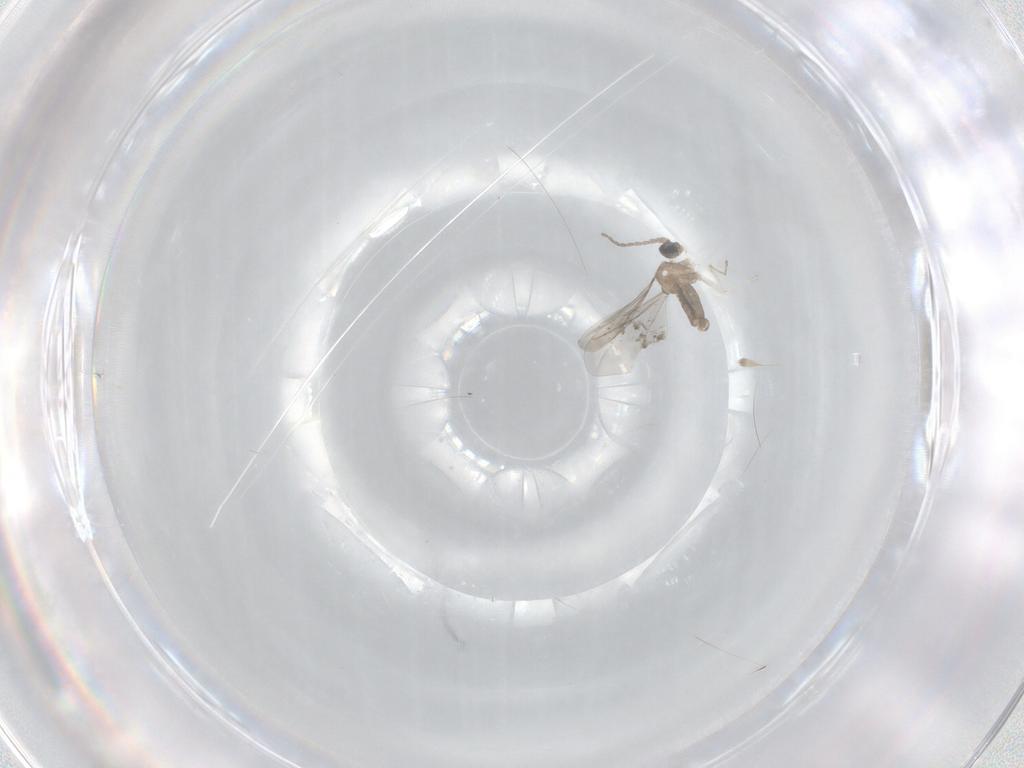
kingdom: Animalia
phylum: Arthropoda
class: Insecta
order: Diptera
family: Cecidomyiidae
